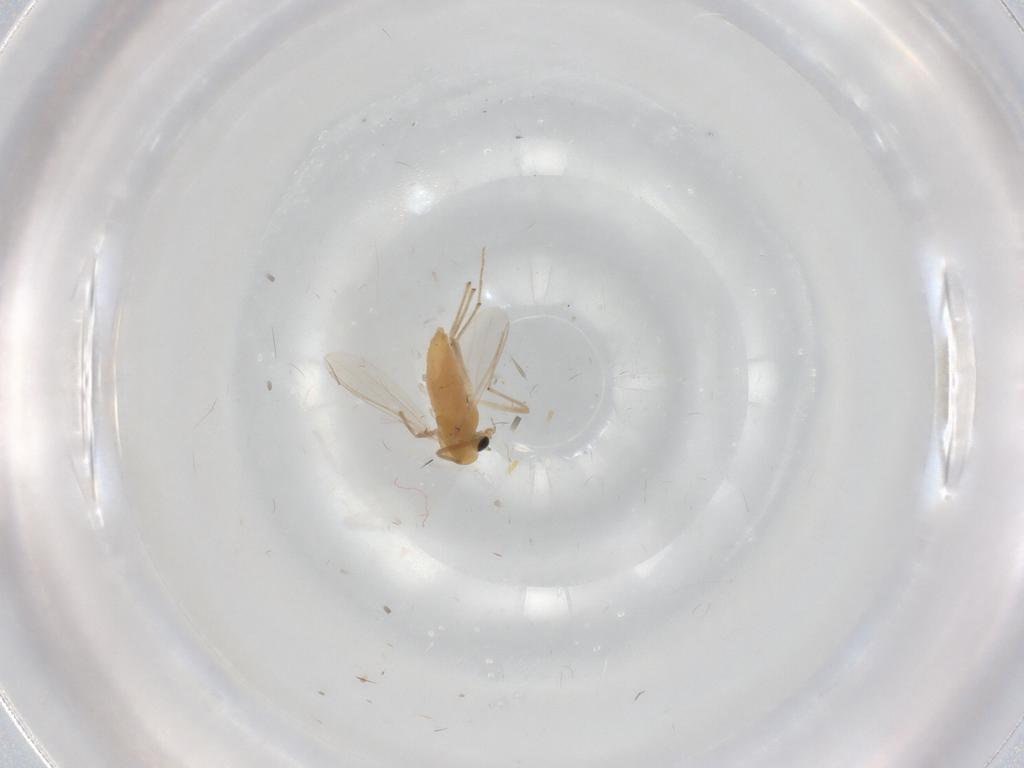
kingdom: Animalia
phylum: Arthropoda
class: Insecta
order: Diptera
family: Chironomidae
